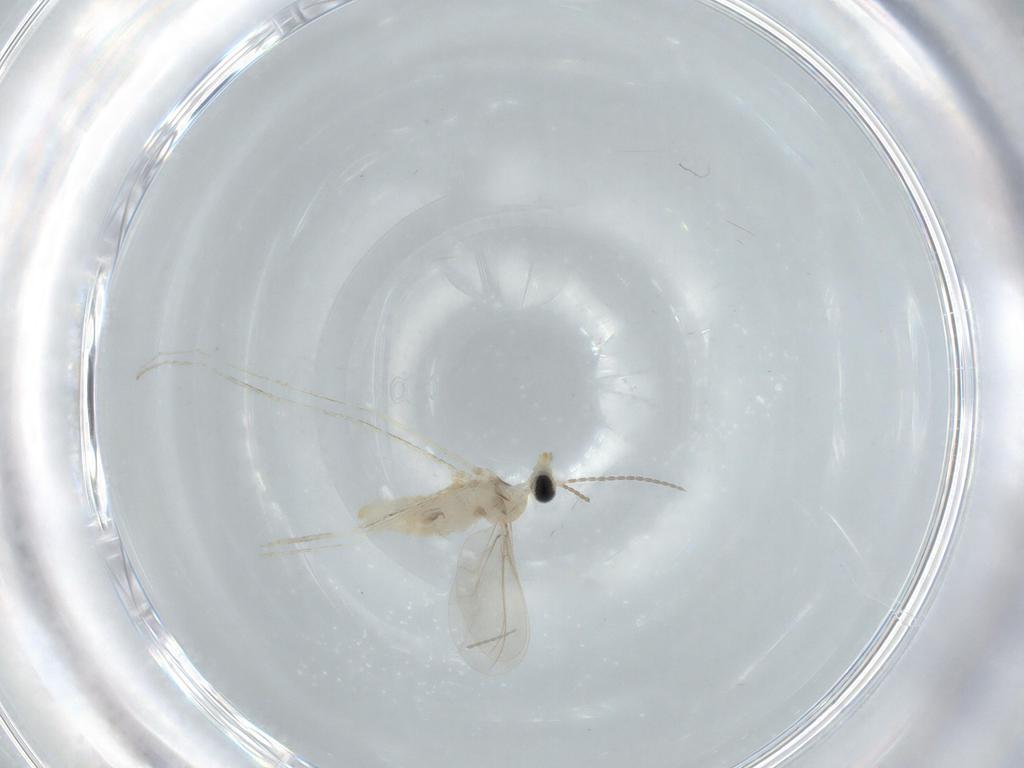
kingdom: Animalia
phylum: Arthropoda
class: Insecta
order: Diptera
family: Cecidomyiidae
